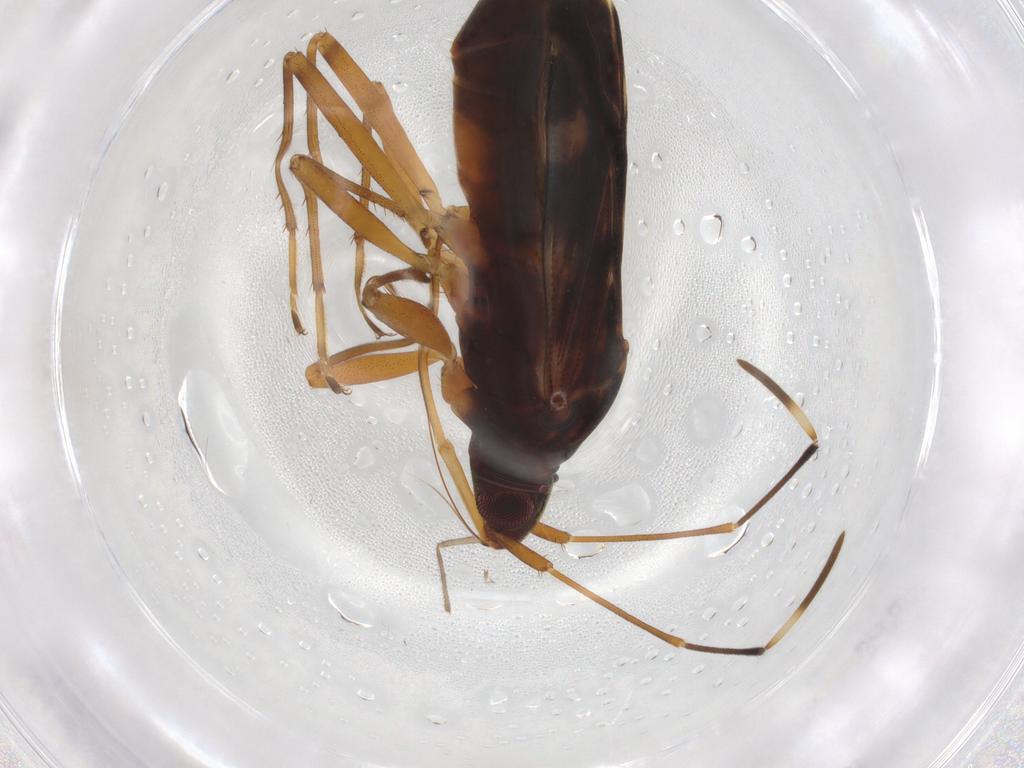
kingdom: Animalia
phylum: Arthropoda
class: Insecta
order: Hemiptera
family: Rhyparochromidae
